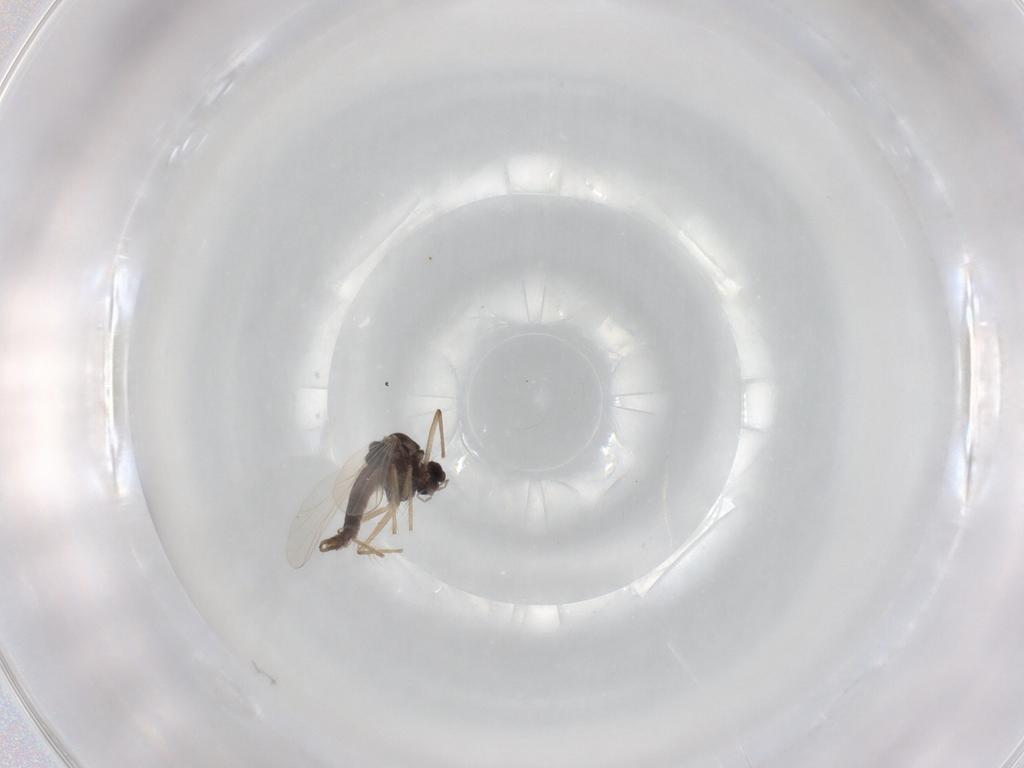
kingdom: Animalia
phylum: Arthropoda
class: Insecta
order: Diptera
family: Chironomidae
